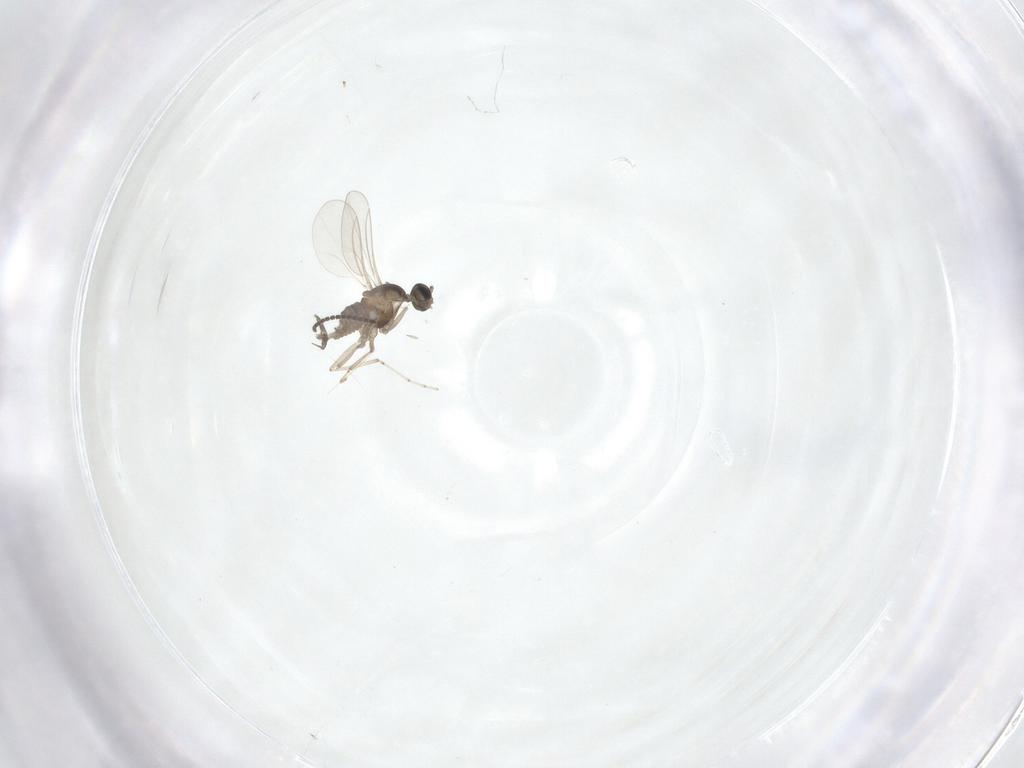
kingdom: Animalia
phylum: Arthropoda
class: Insecta
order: Diptera
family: Cecidomyiidae
